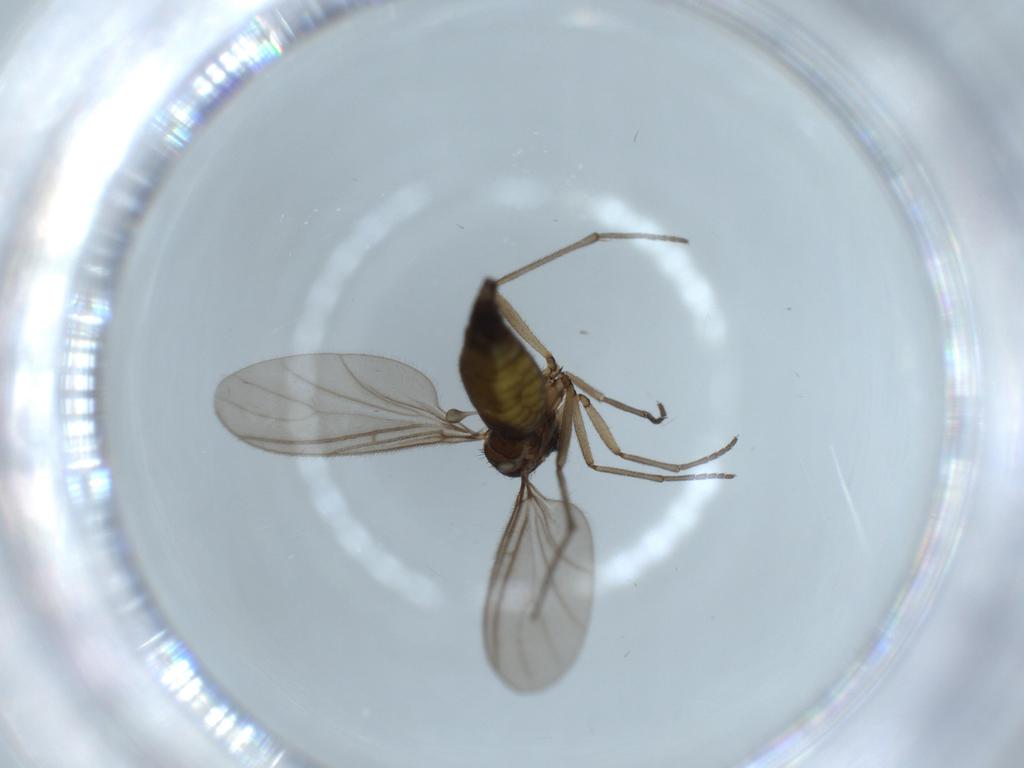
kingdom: Animalia
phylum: Arthropoda
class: Insecta
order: Diptera
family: Sciaridae
